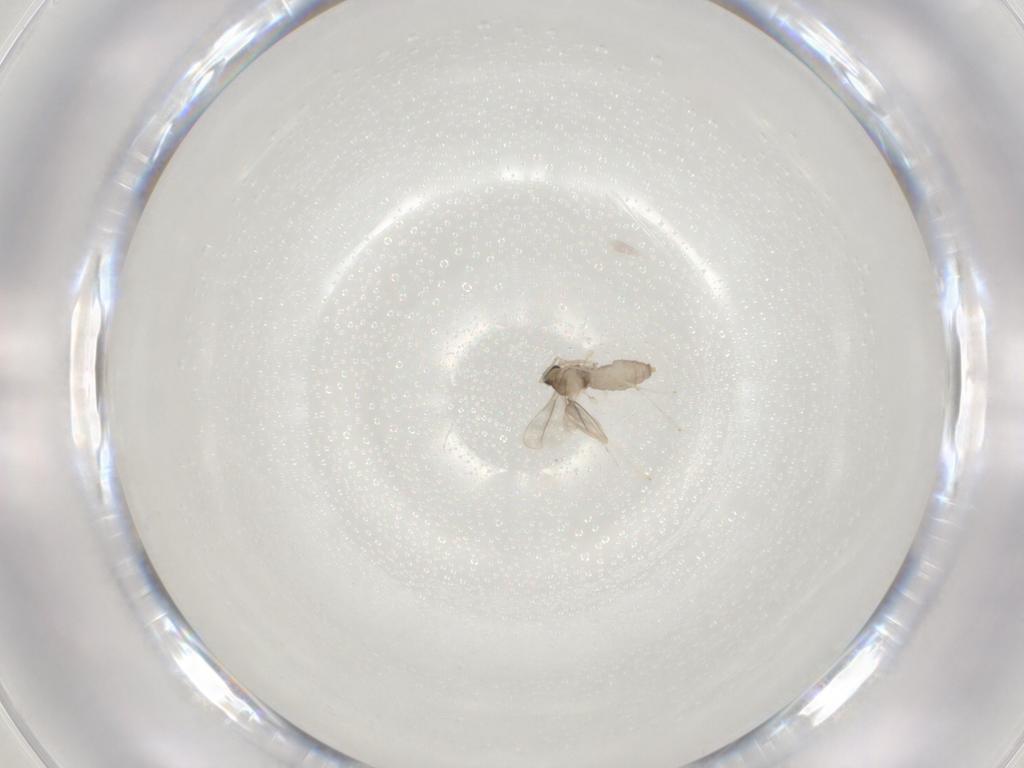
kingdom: Animalia
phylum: Arthropoda
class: Insecta
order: Diptera
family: Cecidomyiidae
